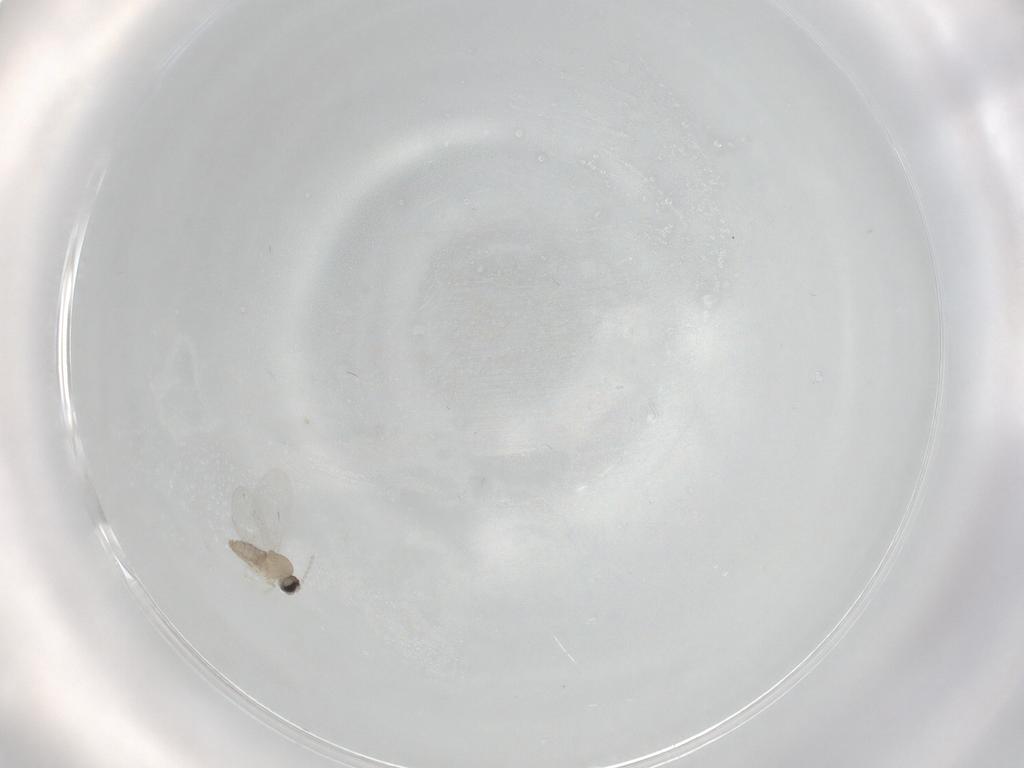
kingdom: Animalia
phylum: Arthropoda
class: Insecta
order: Diptera
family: Cecidomyiidae
